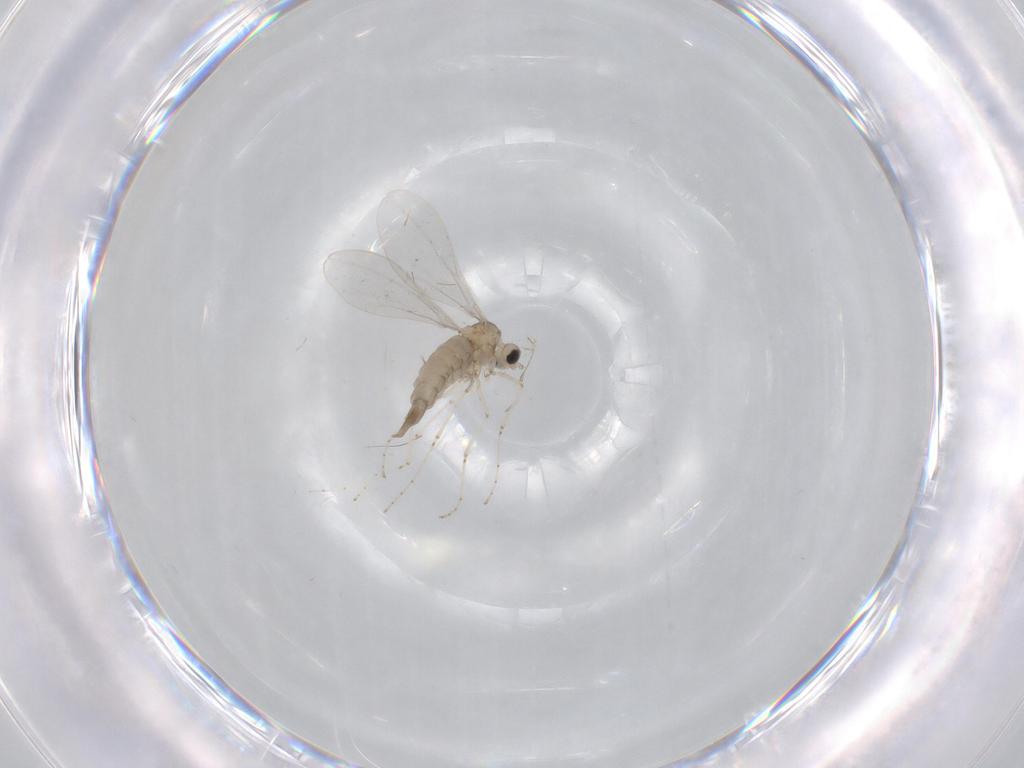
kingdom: Animalia
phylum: Arthropoda
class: Insecta
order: Diptera
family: Cecidomyiidae
